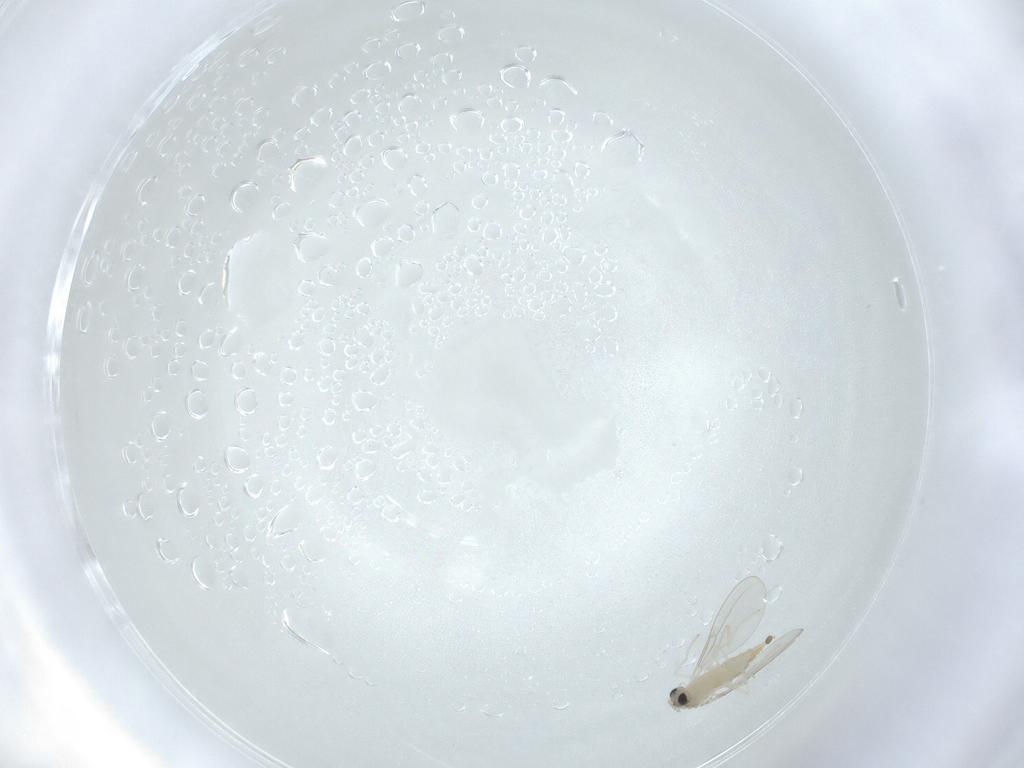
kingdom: Animalia
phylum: Arthropoda
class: Insecta
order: Diptera
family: Cecidomyiidae
